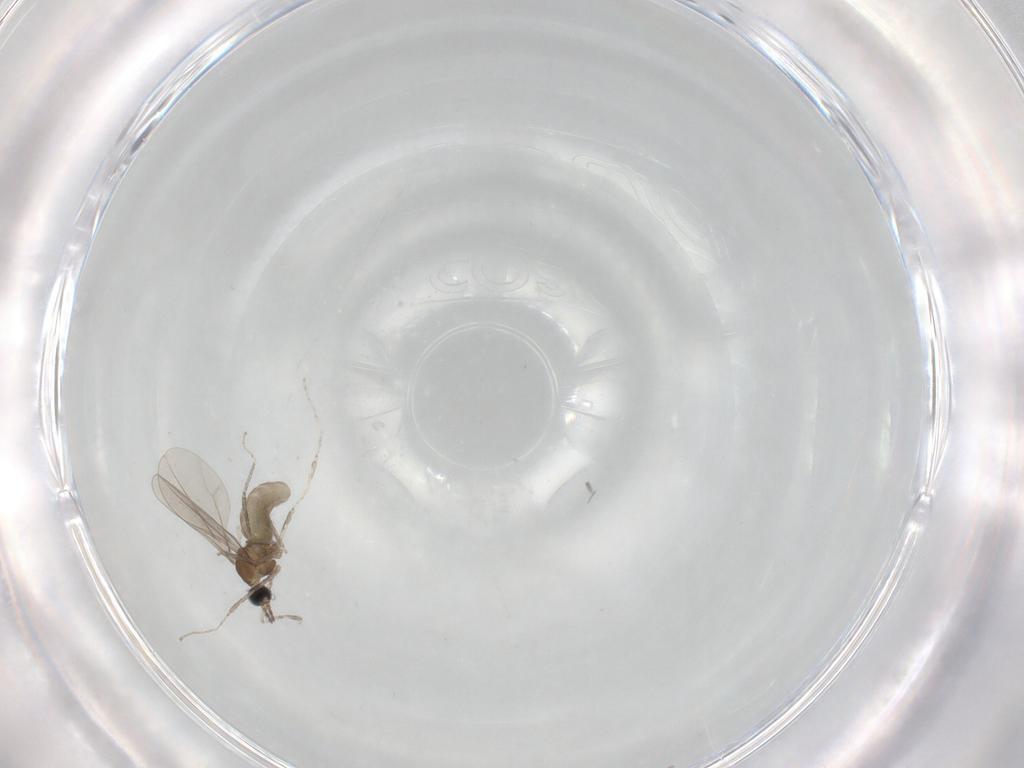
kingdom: Animalia
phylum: Arthropoda
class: Insecta
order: Diptera
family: Cecidomyiidae
